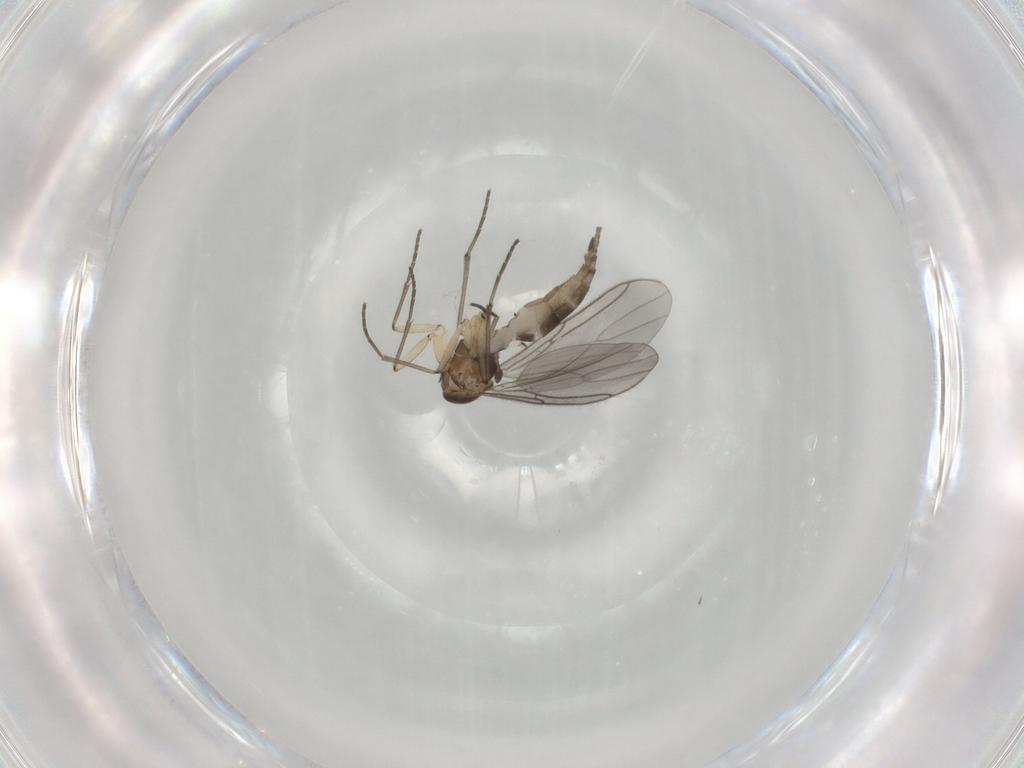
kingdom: Animalia
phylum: Arthropoda
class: Insecta
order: Diptera
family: Sciaridae
